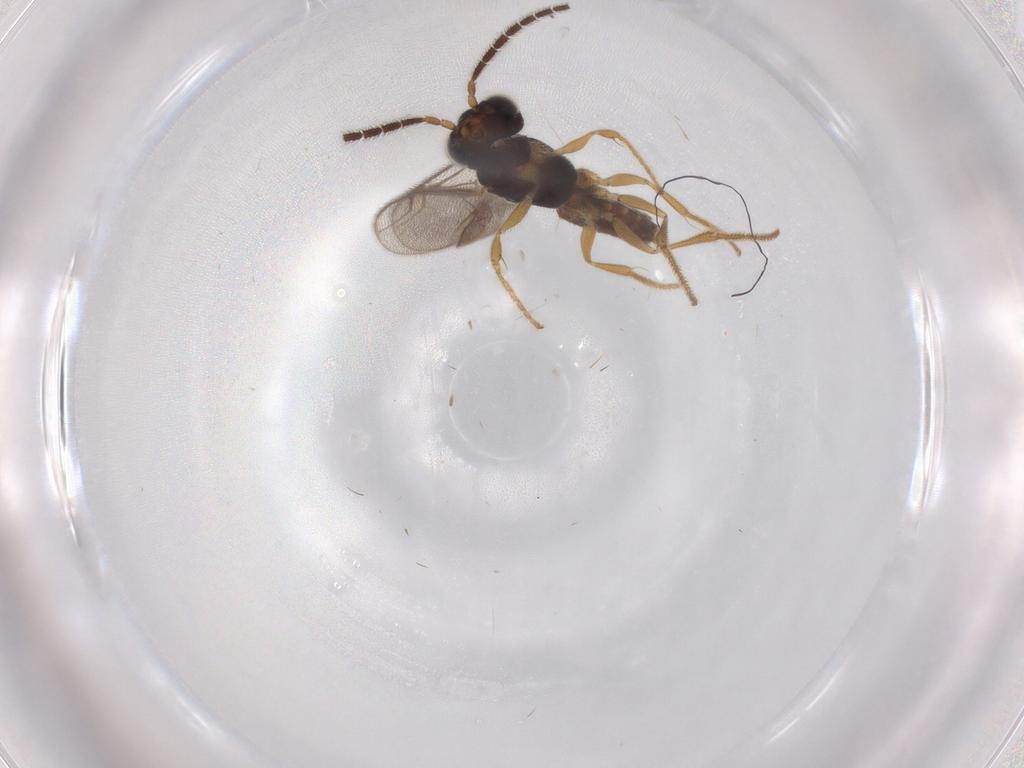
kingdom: Animalia
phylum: Arthropoda
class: Insecta
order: Hymenoptera
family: Dryinidae
